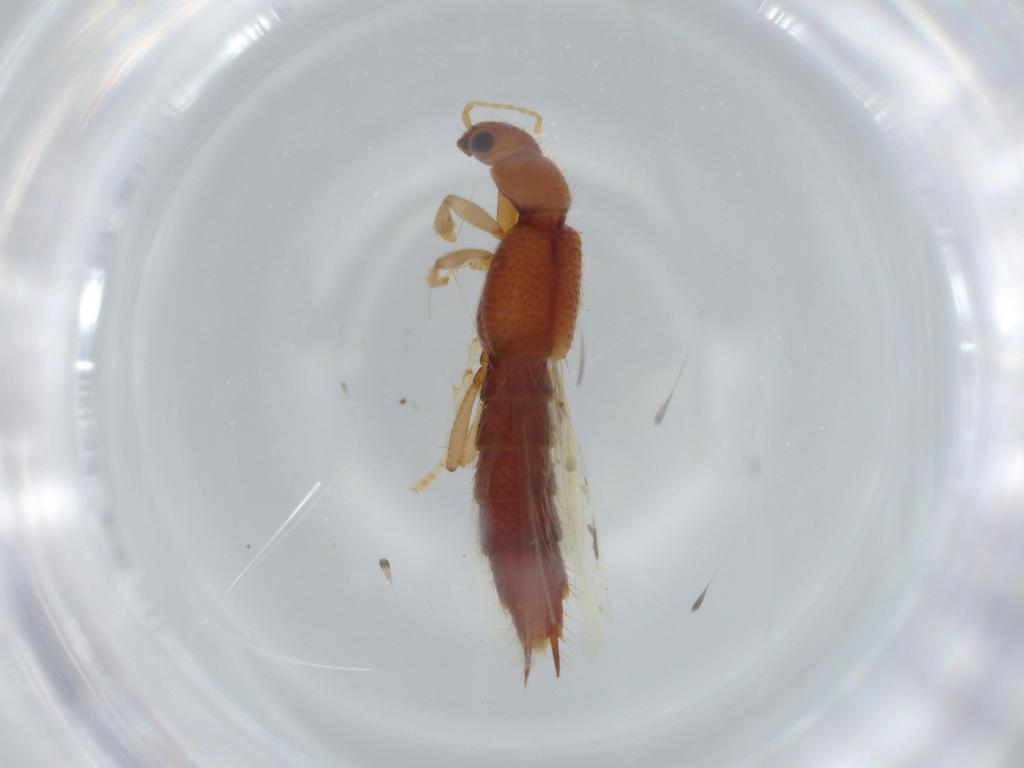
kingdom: Animalia
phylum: Arthropoda
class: Insecta
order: Coleoptera
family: Staphylinidae
